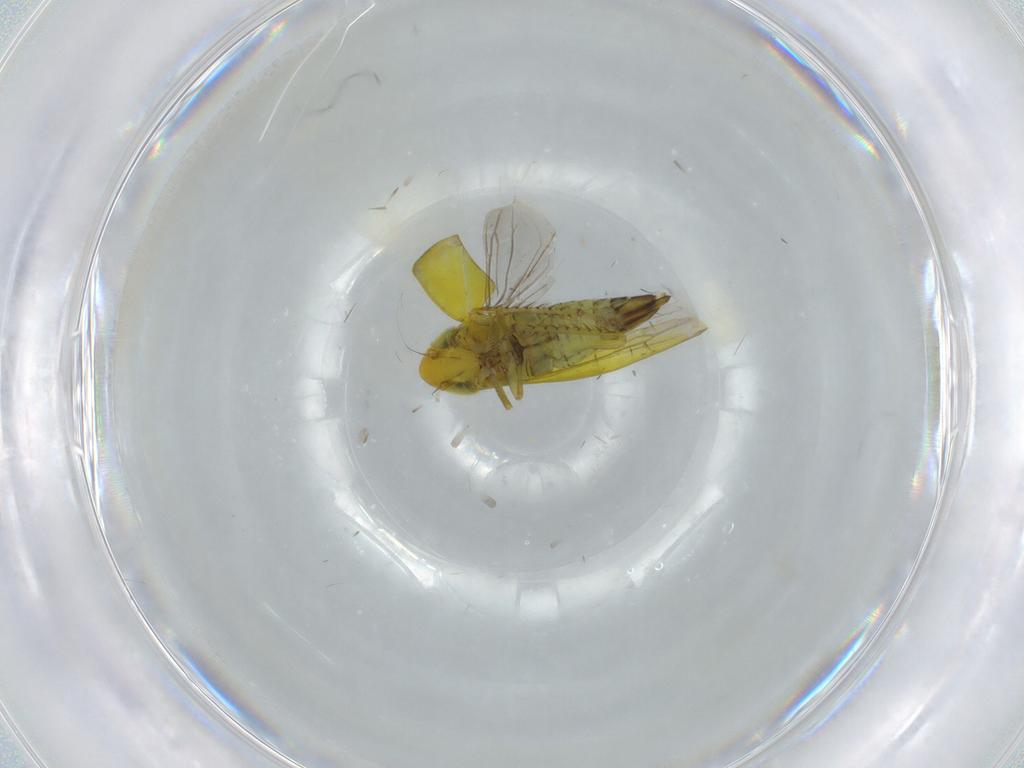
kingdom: Animalia
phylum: Arthropoda
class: Insecta
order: Hemiptera
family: Cicadellidae
